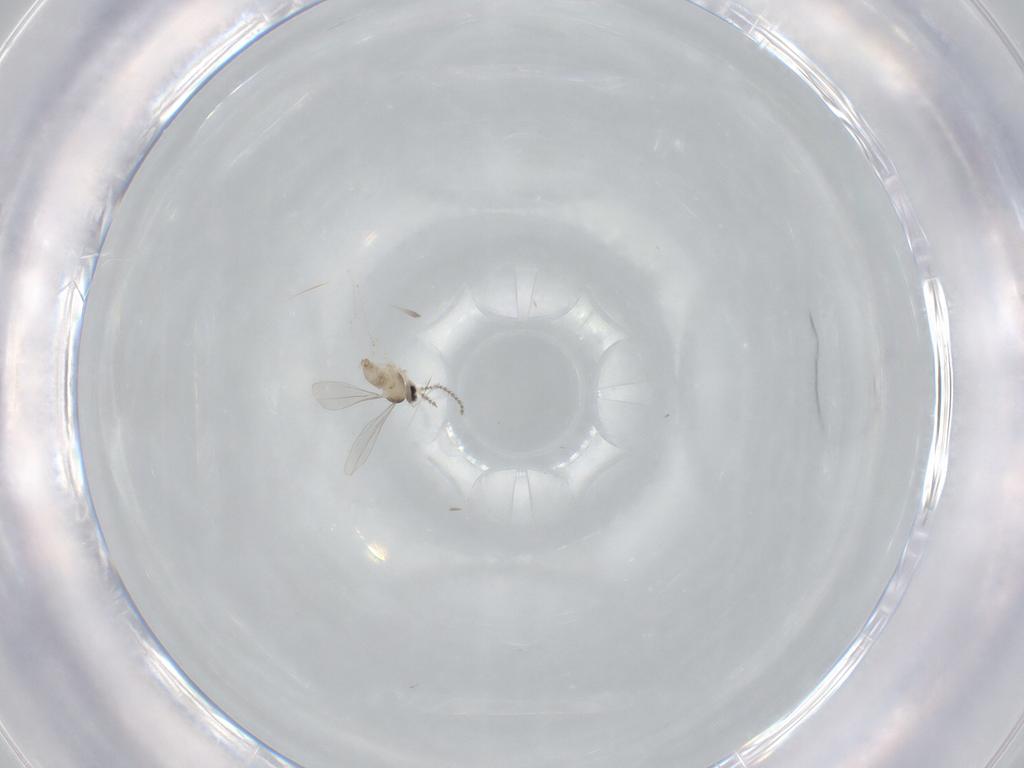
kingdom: Animalia
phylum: Arthropoda
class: Insecta
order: Diptera
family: Cecidomyiidae
